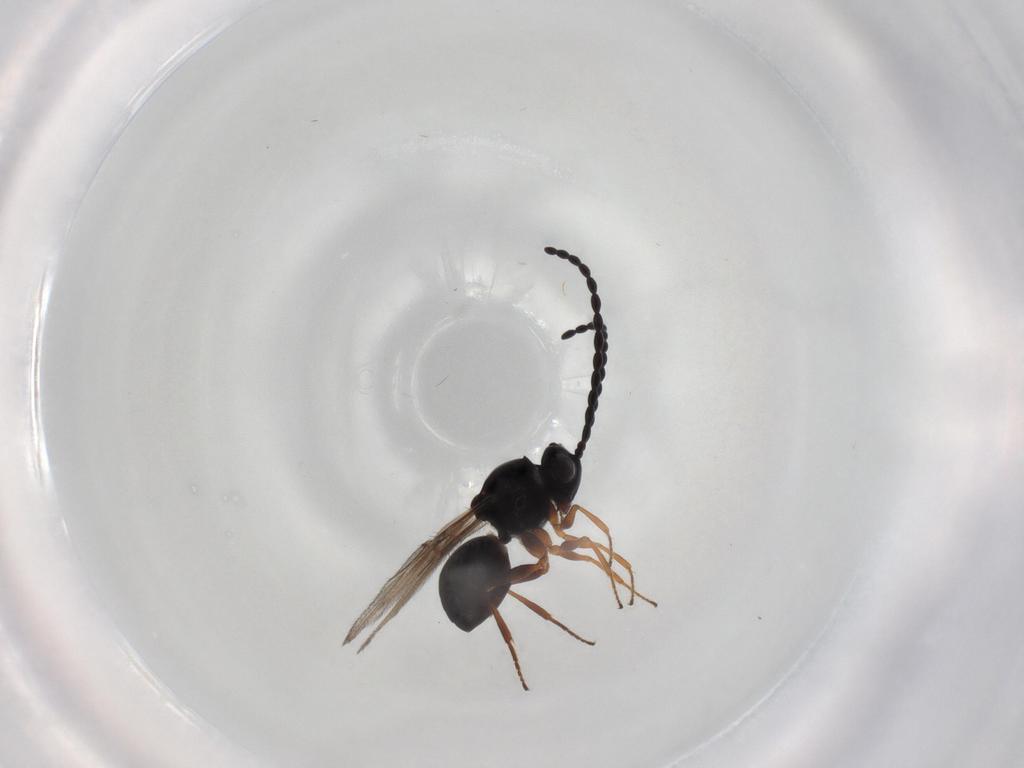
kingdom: Animalia
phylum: Arthropoda
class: Insecta
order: Hymenoptera
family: Figitidae
